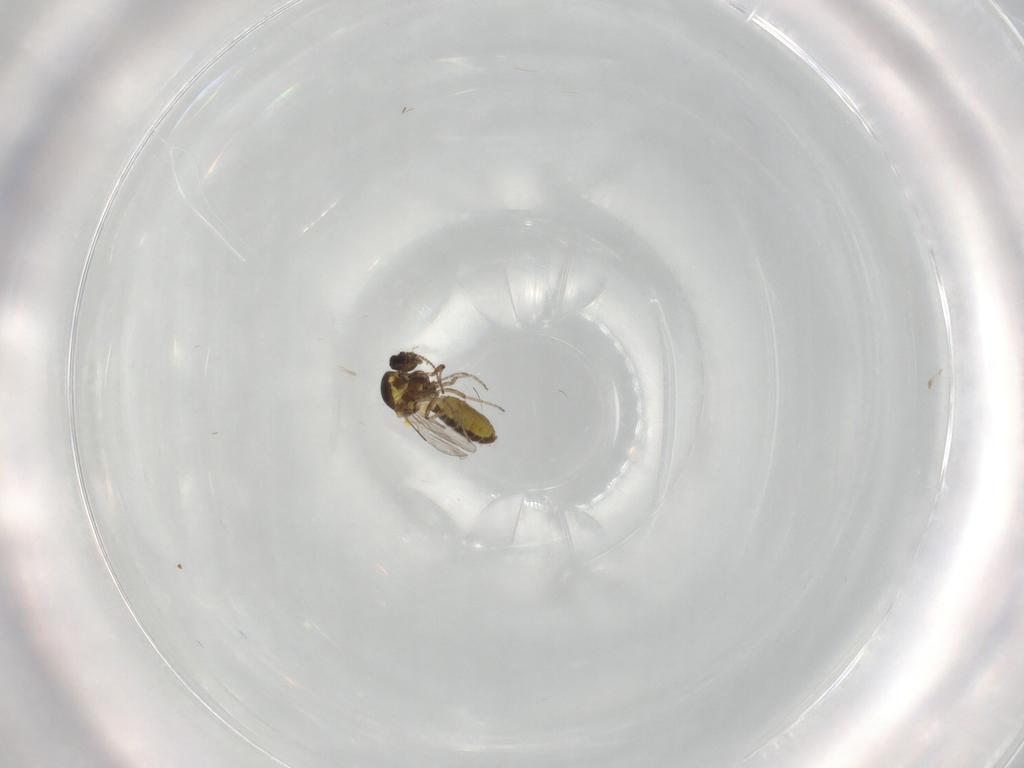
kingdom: Animalia
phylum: Arthropoda
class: Insecta
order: Diptera
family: Ceratopogonidae
